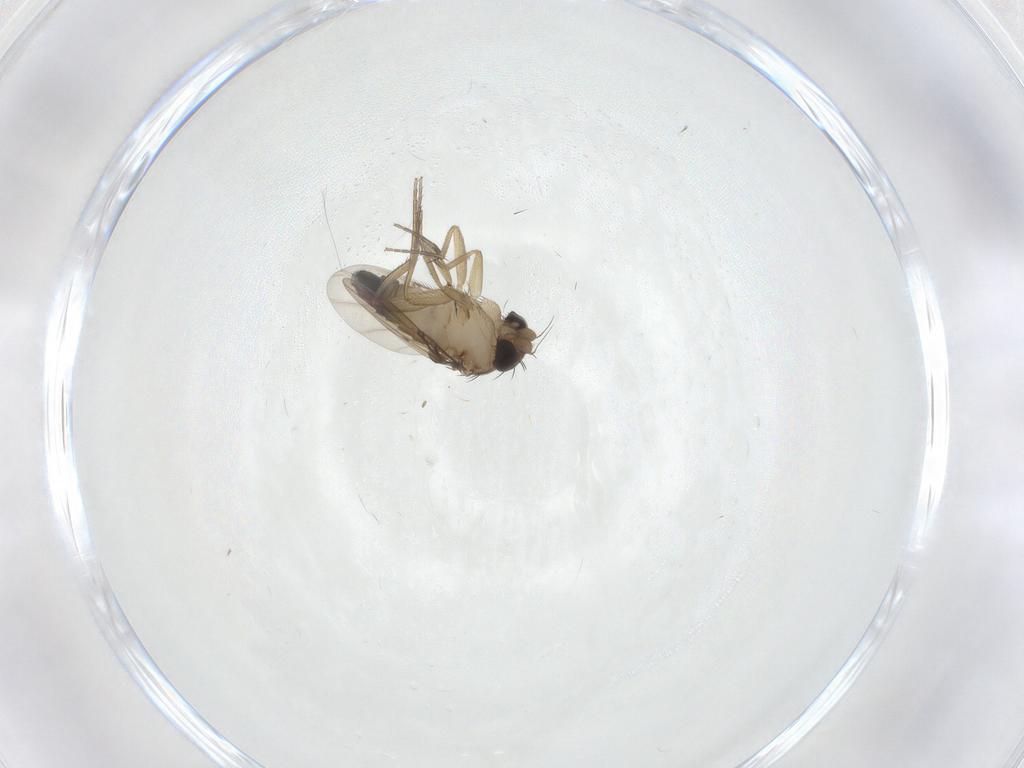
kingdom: Animalia
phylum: Arthropoda
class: Insecta
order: Diptera
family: Phoridae
